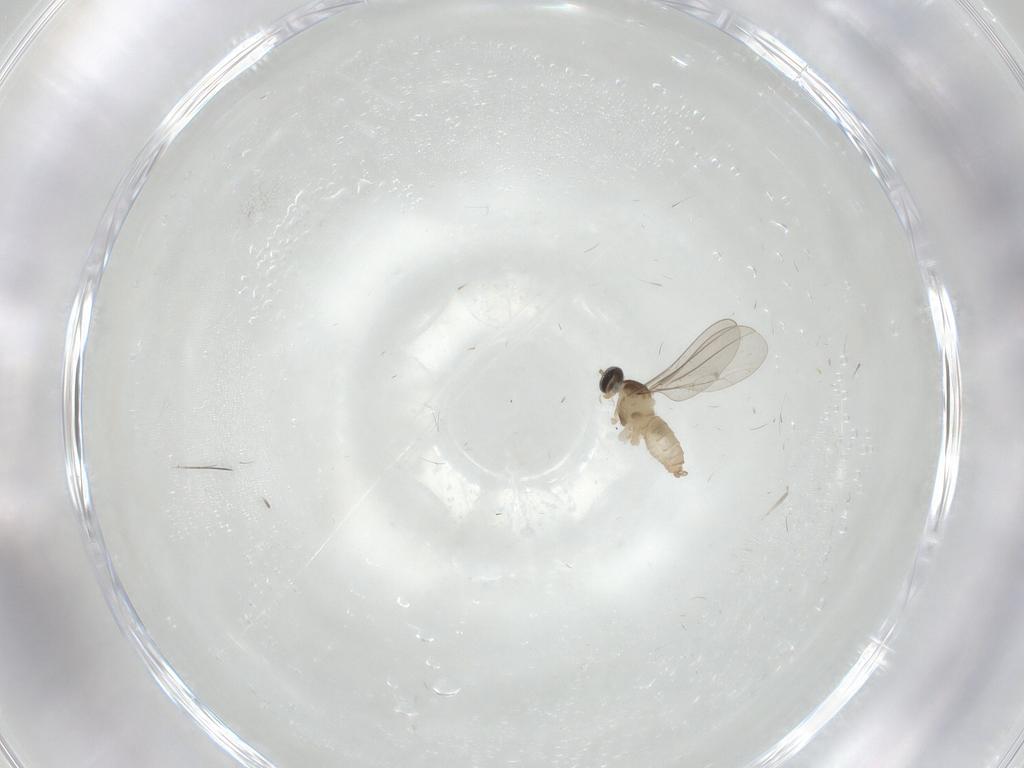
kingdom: Animalia
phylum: Arthropoda
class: Insecta
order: Diptera
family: Cecidomyiidae
